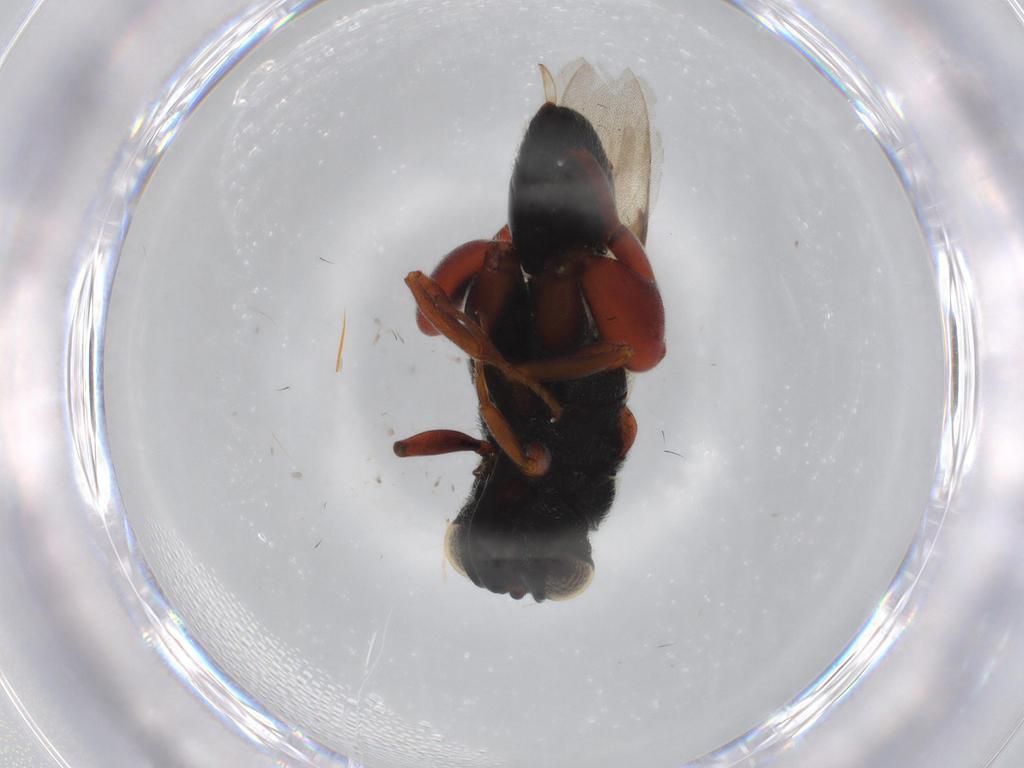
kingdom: Animalia
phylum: Arthropoda
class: Insecta
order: Hymenoptera
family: Chalcididae
